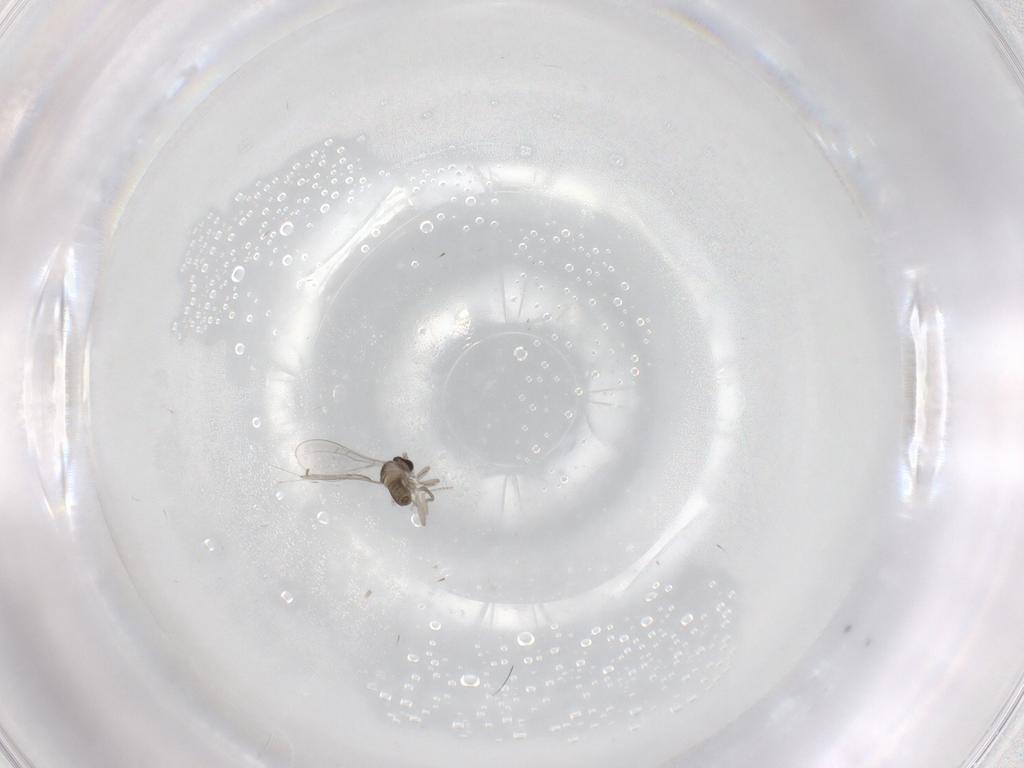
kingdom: Animalia
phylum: Arthropoda
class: Insecta
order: Diptera
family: Cecidomyiidae
